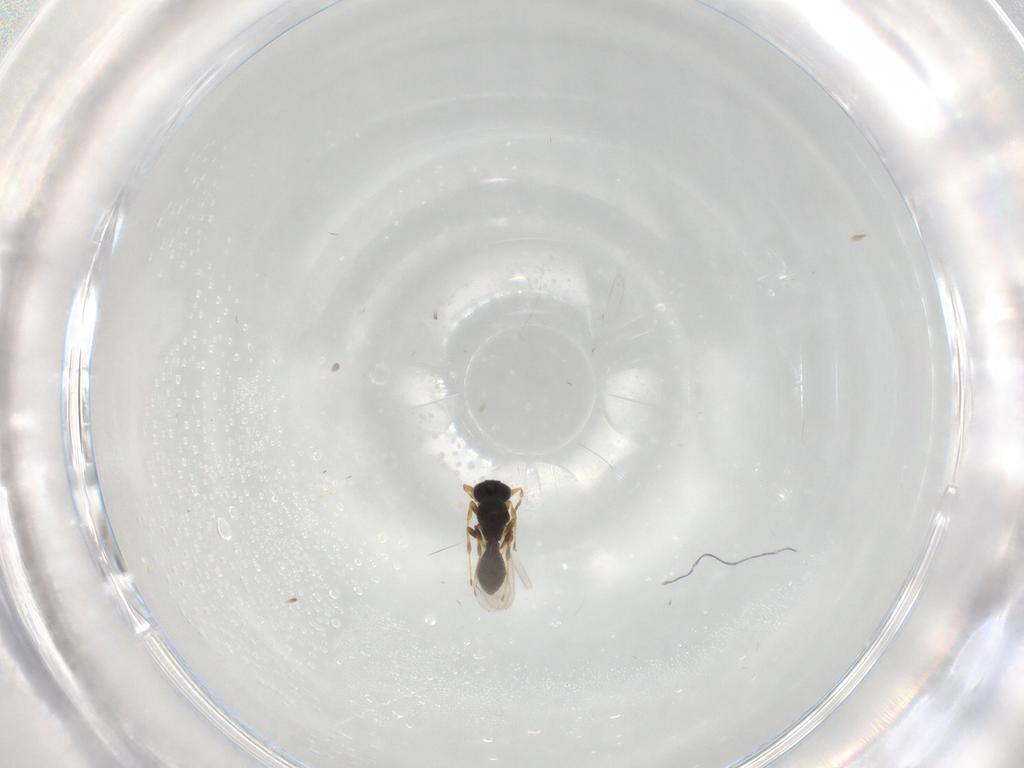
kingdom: Animalia
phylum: Arthropoda
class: Insecta
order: Hymenoptera
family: Platygastridae
